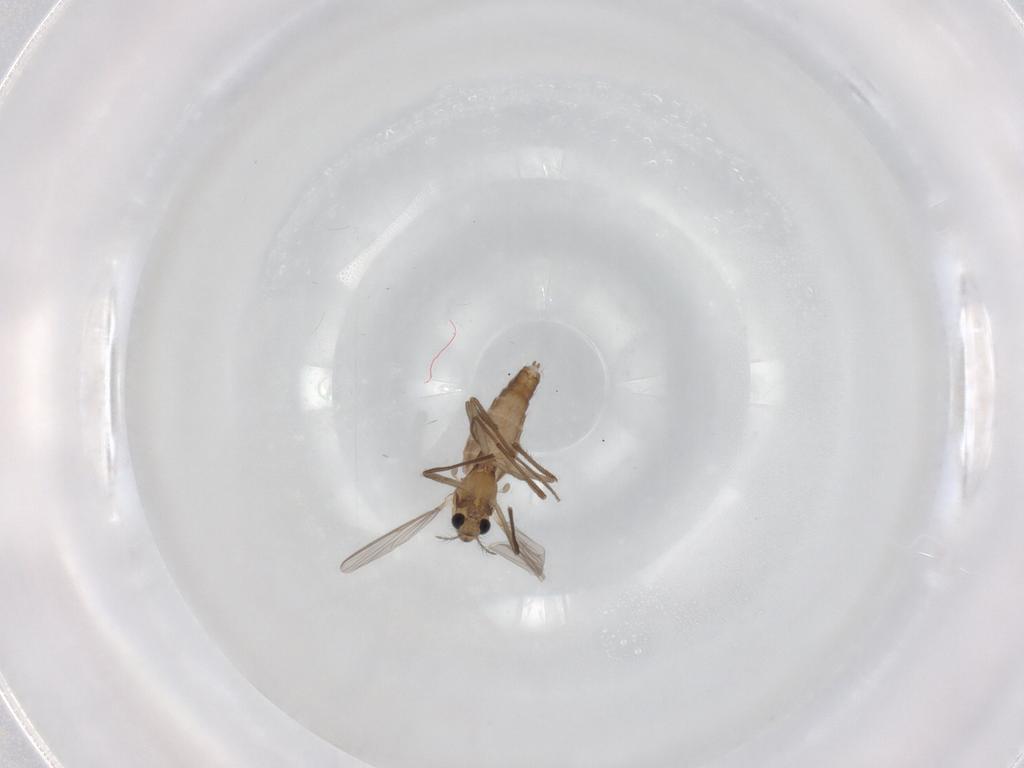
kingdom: Animalia
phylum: Arthropoda
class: Insecta
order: Diptera
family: Chironomidae
